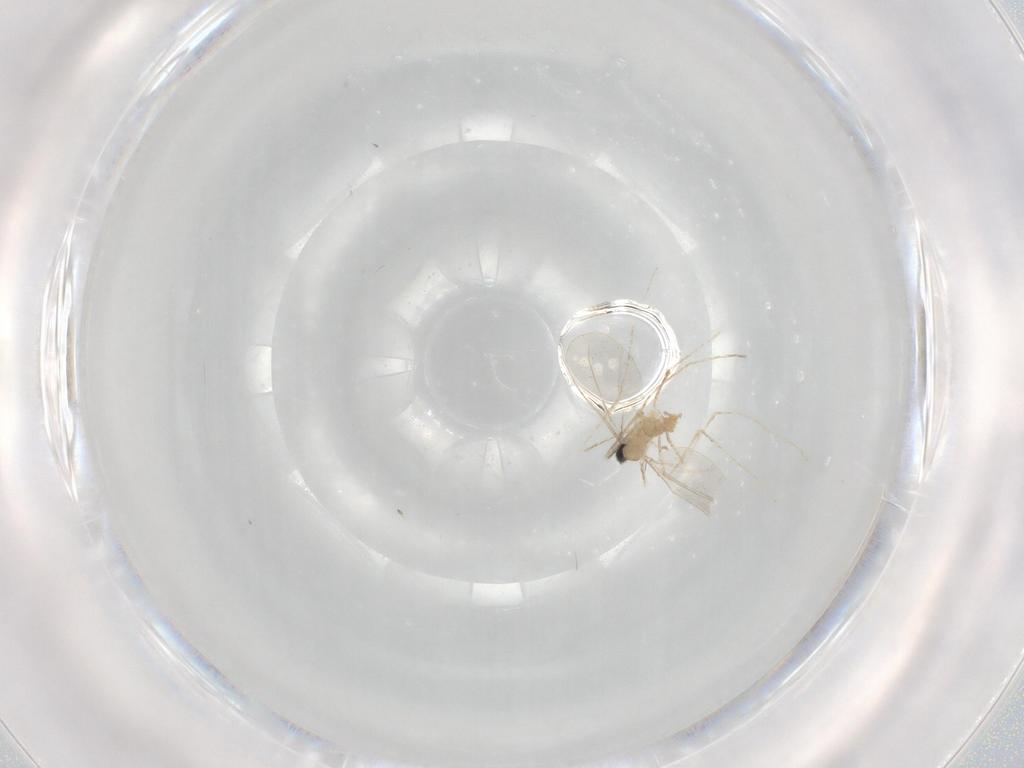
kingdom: Animalia
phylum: Arthropoda
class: Insecta
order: Diptera
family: Cecidomyiidae
